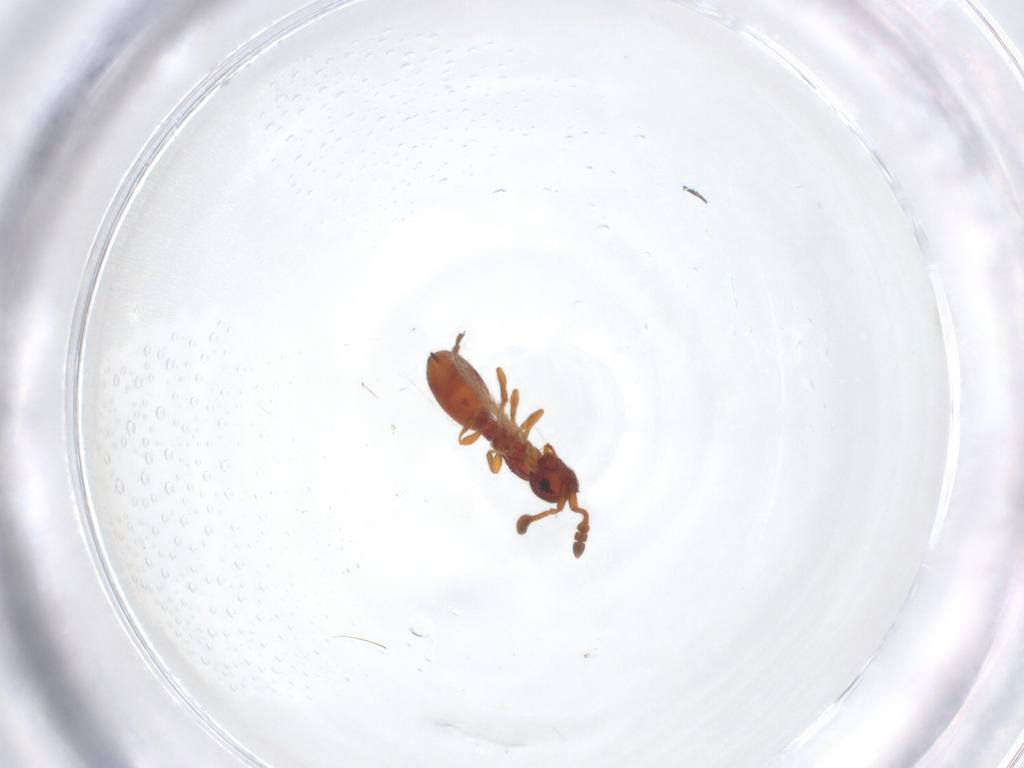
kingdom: Animalia
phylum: Arthropoda
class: Insecta
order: Hymenoptera
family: Diapriidae
